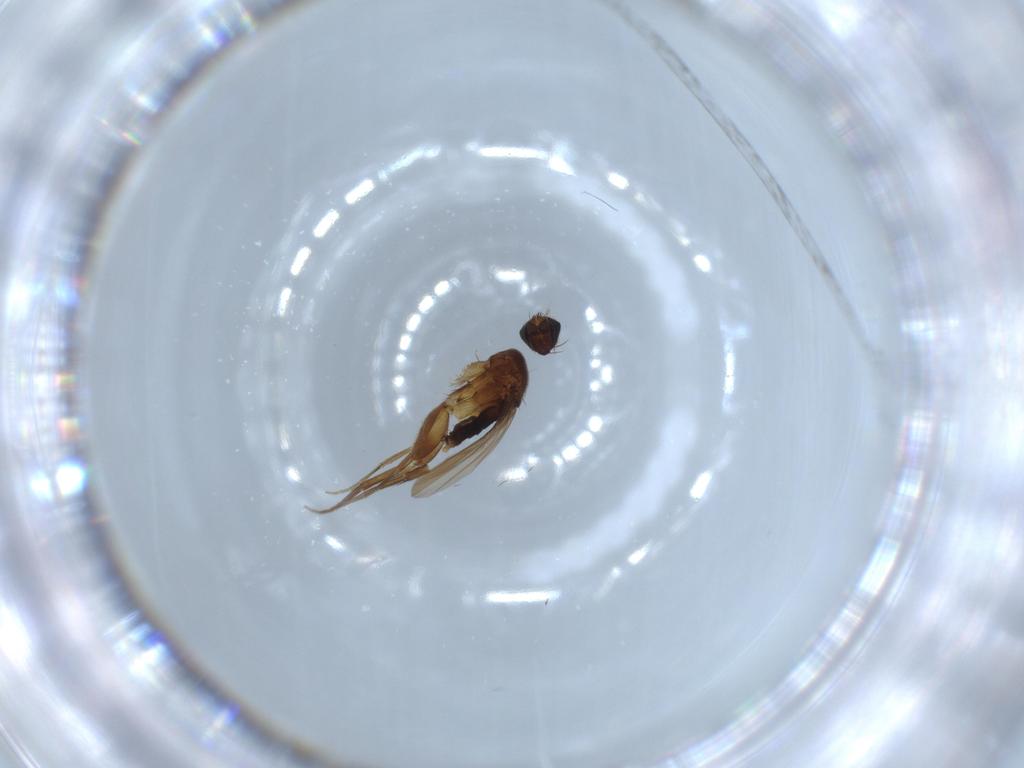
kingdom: Animalia
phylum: Arthropoda
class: Insecta
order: Diptera
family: Phoridae
